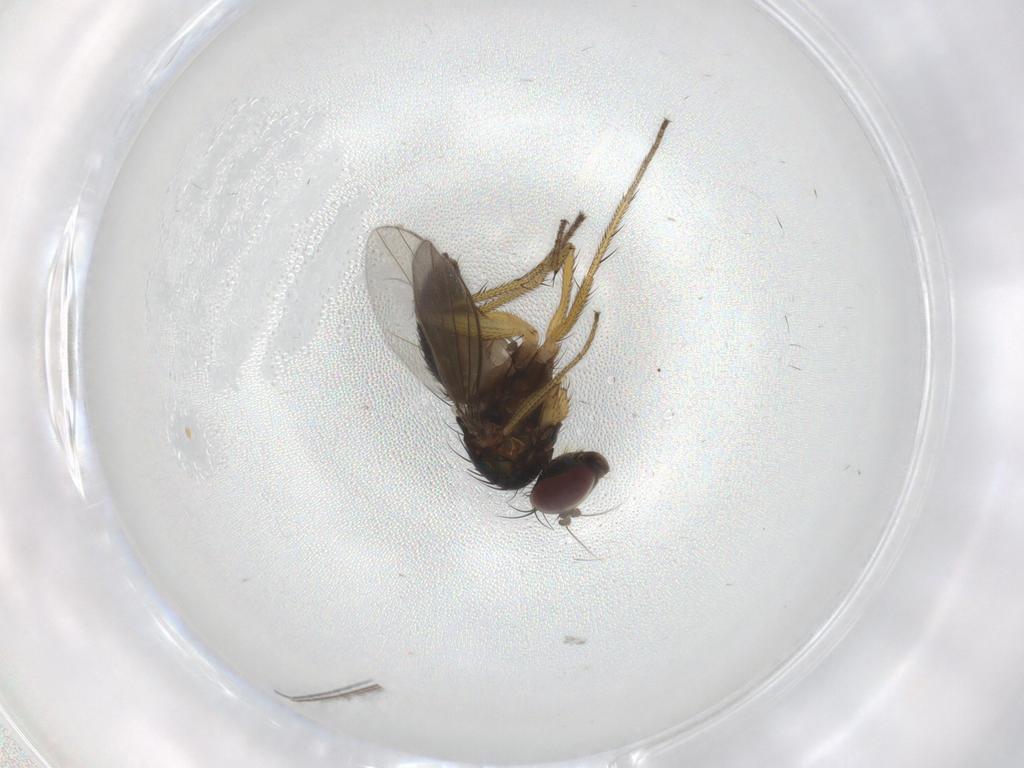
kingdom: Animalia
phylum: Arthropoda
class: Insecta
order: Diptera
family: Sciaridae
